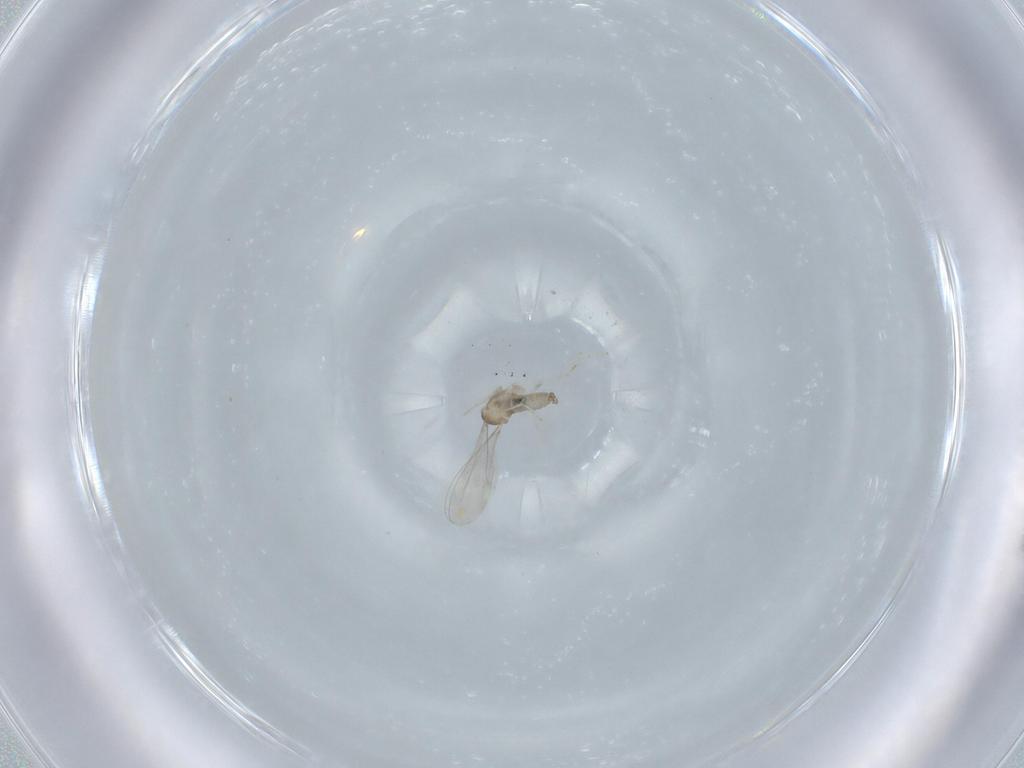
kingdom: Animalia
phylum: Arthropoda
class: Insecta
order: Diptera
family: Cecidomyiidae
